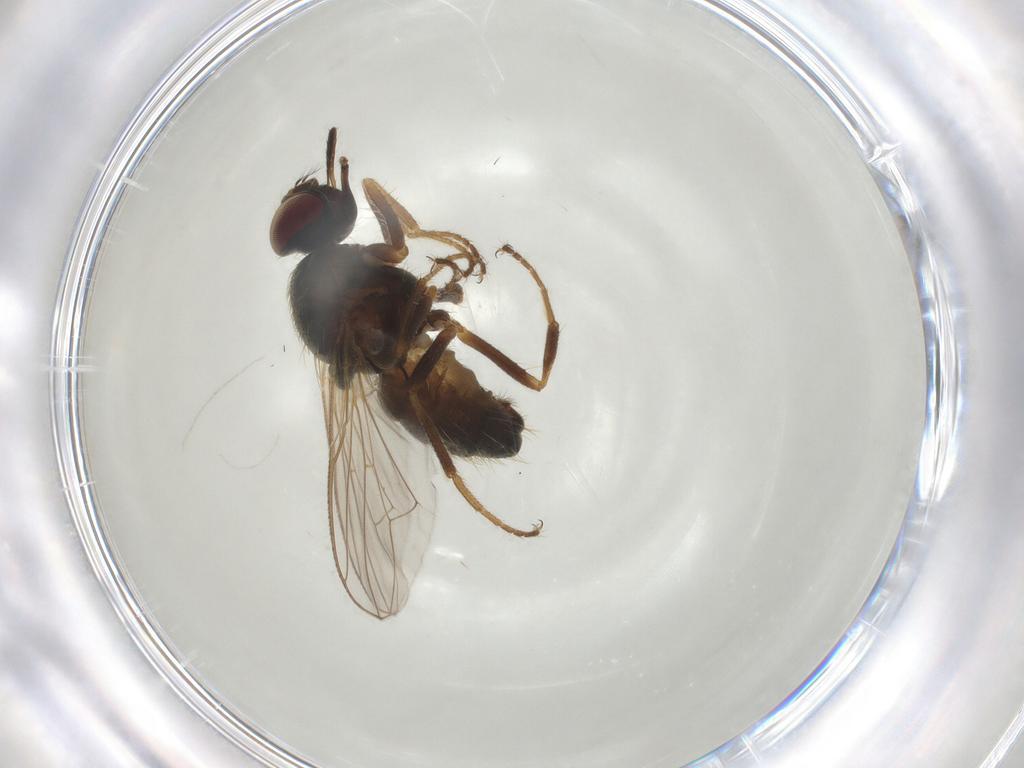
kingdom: Animalia
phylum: Arthropoda
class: Insecta
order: Diptera
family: Muscidae
